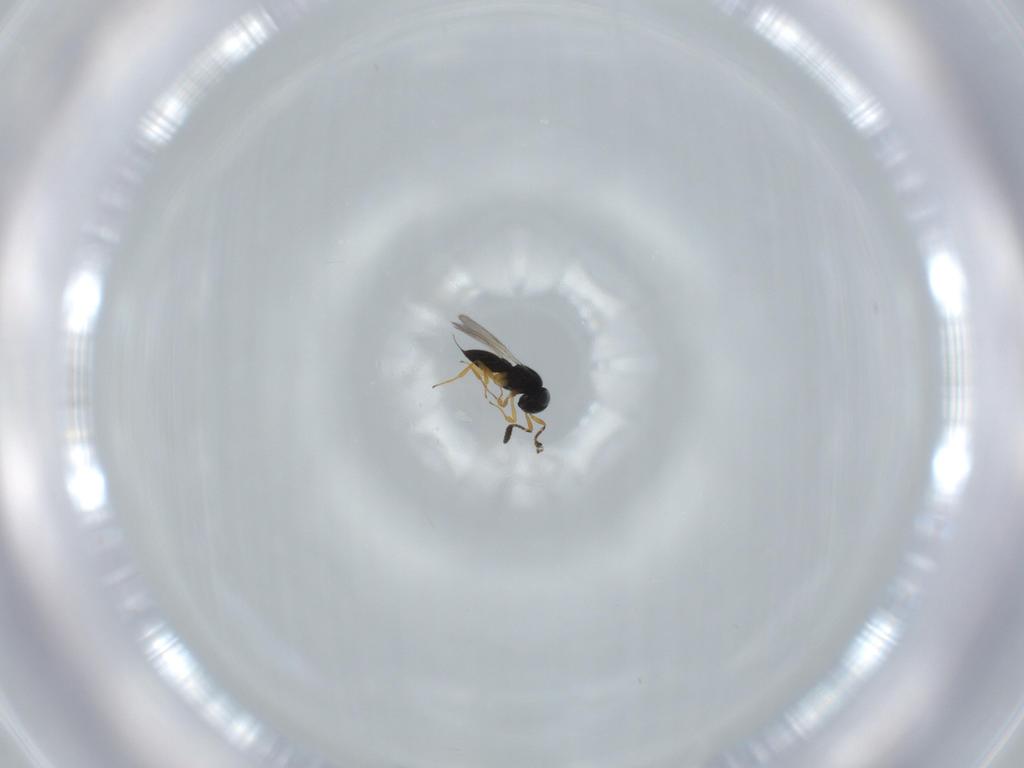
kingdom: Animalia
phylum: Arthropoda
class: Insecta
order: Hymenoptera
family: Scelionidae
